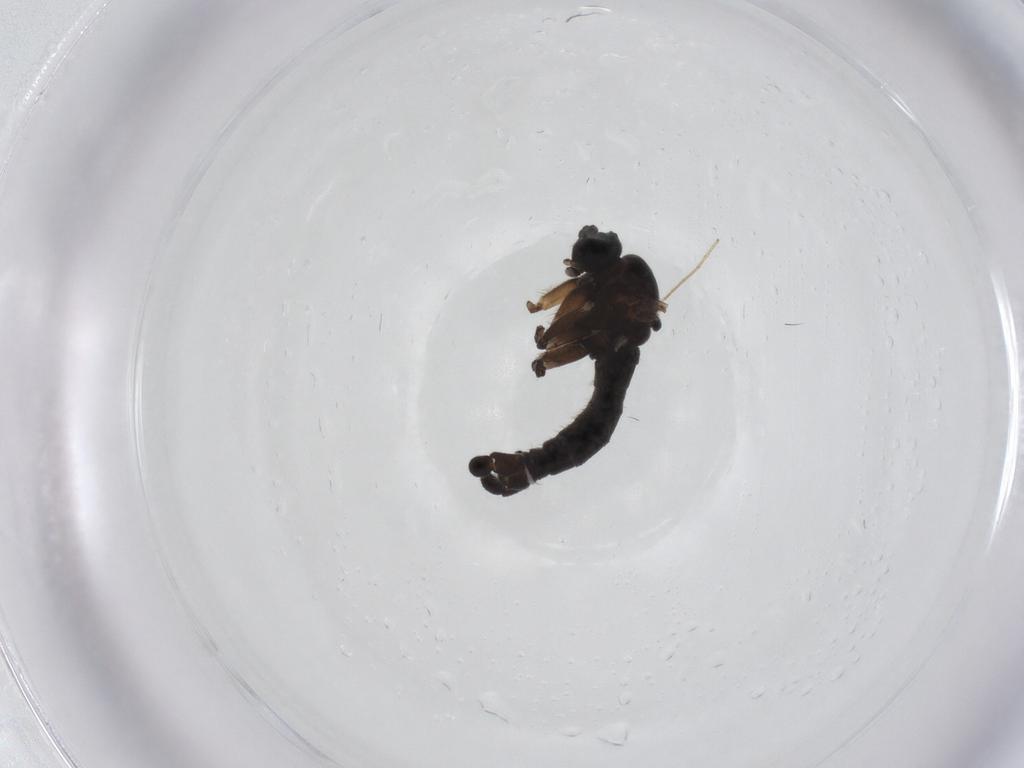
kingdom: Animalia
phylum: Arthropoda
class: Insecta
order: Diptera
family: Sciaridae
